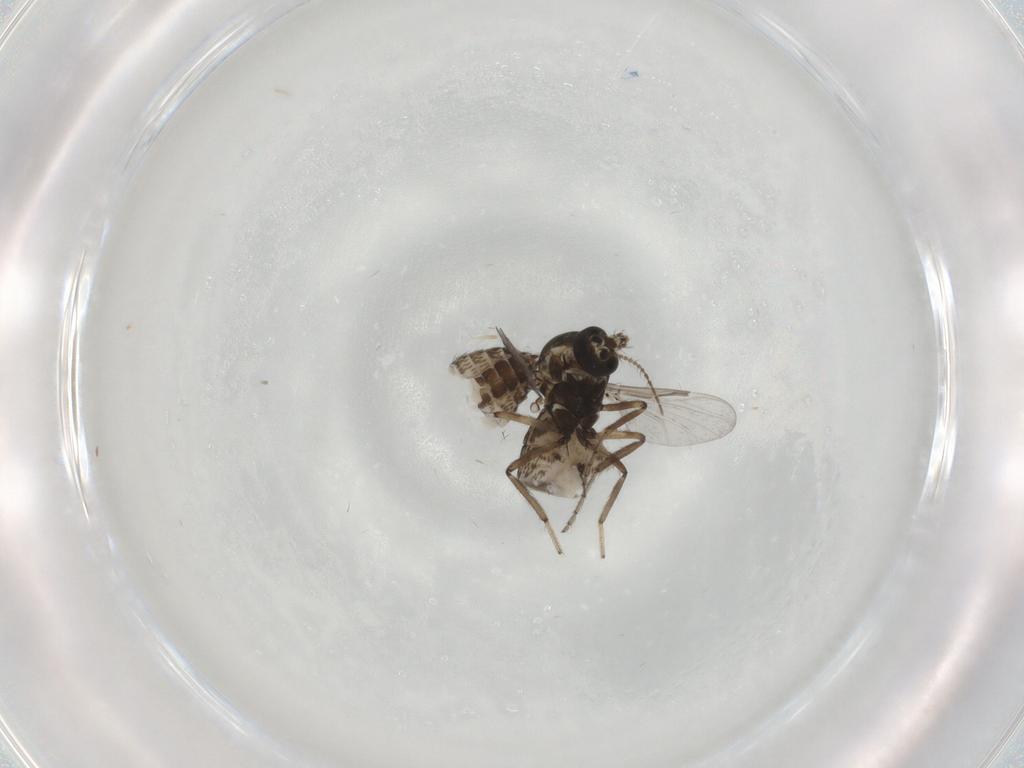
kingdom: Animalia
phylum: Arthropoda
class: Insecta
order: Diptera
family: Ceratopogonidae
